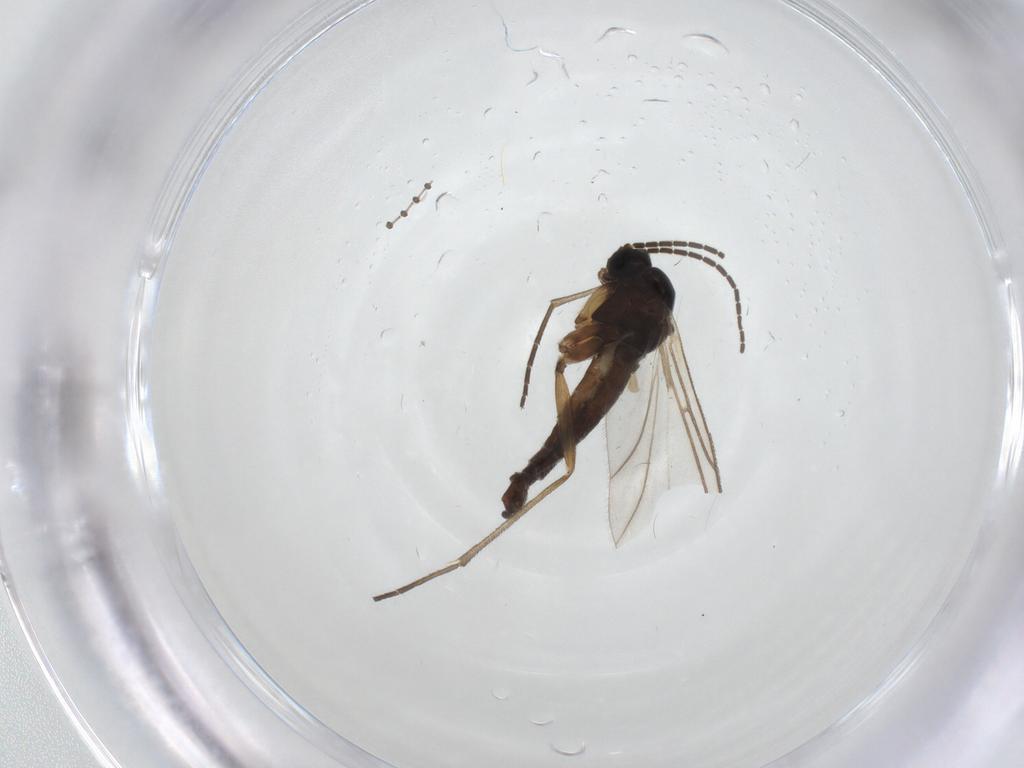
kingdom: Animalia
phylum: Arthropoda
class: Insecta
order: Diptera
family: Sciaridae
